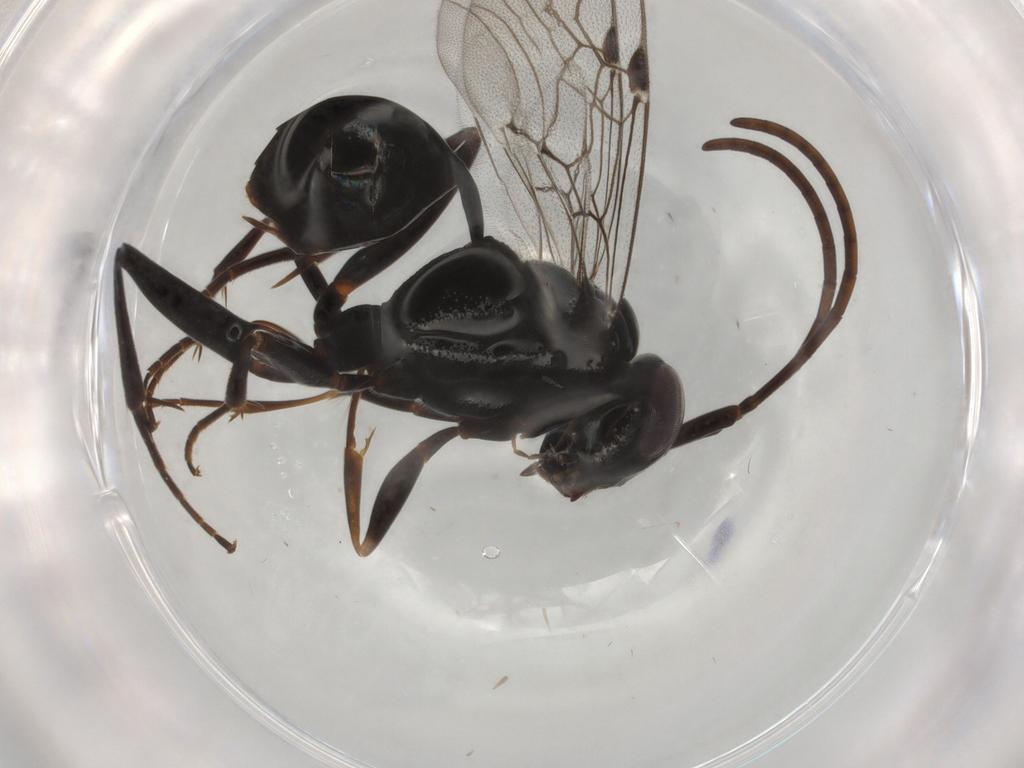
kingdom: Animalia
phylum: Arthropoda
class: Insecta
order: Hymenoptera
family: Evaniidae
